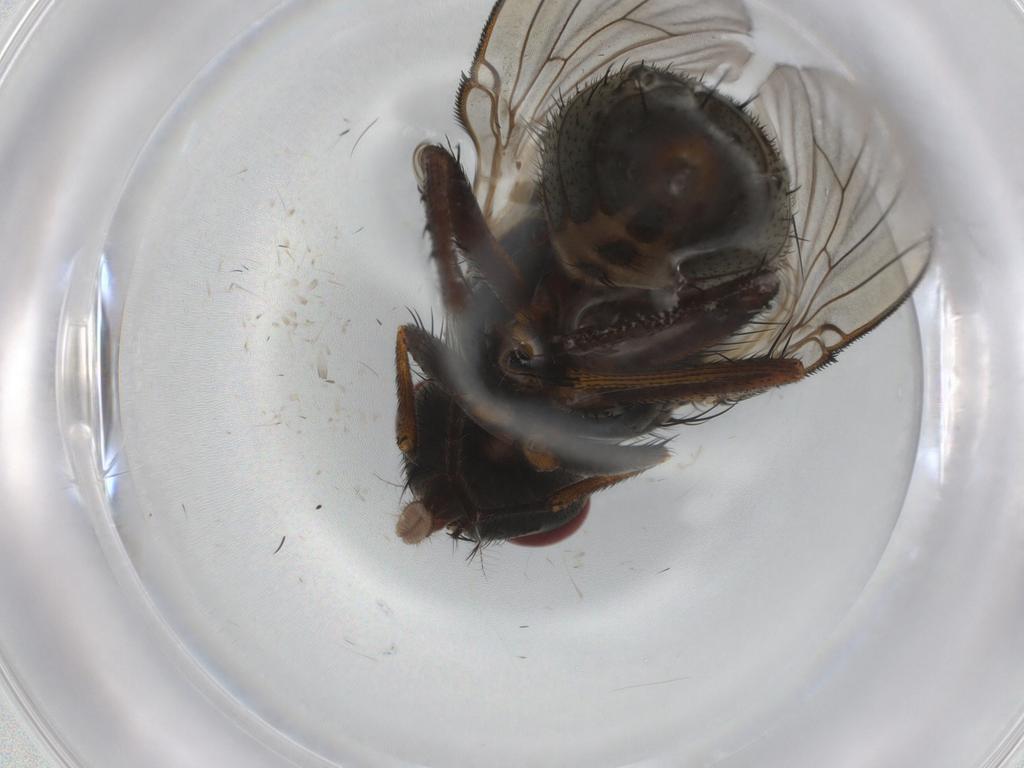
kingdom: Animalia
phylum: Arthropoda
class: Insecta
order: Diptera
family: Muscidae
